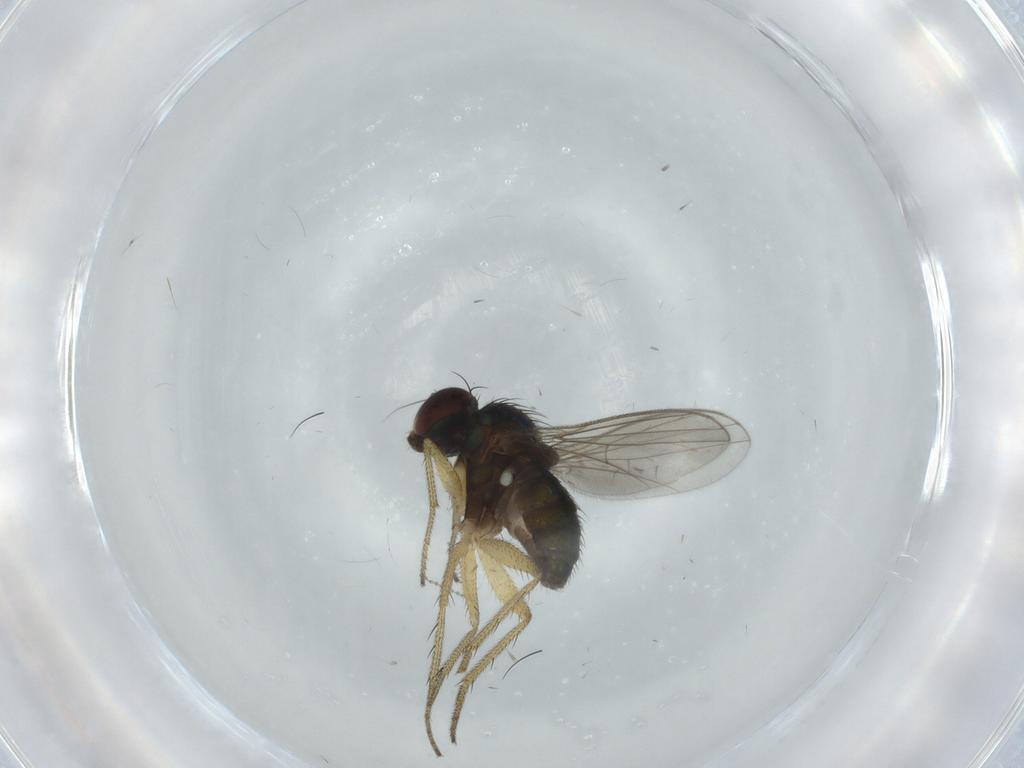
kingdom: Animalia
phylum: Arthropoda
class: Insecta
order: Diptera
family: Dolichopodidae
